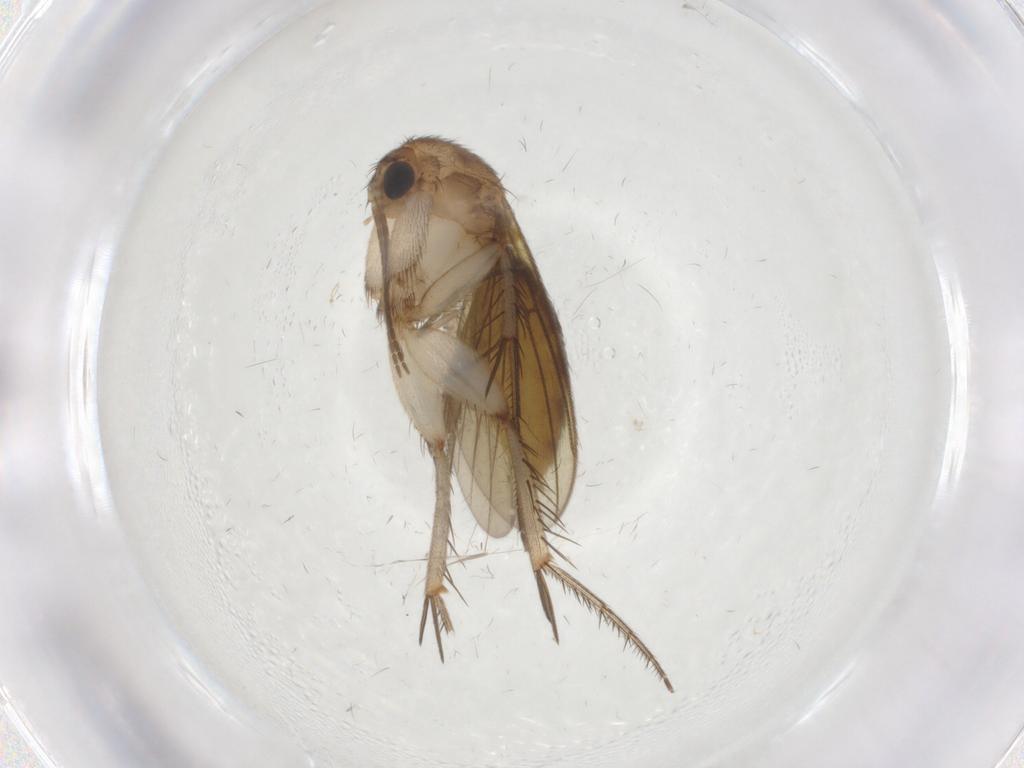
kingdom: Animalia
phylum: Arthropoda
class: Insecta
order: Diptera
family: Mycetophilidae
